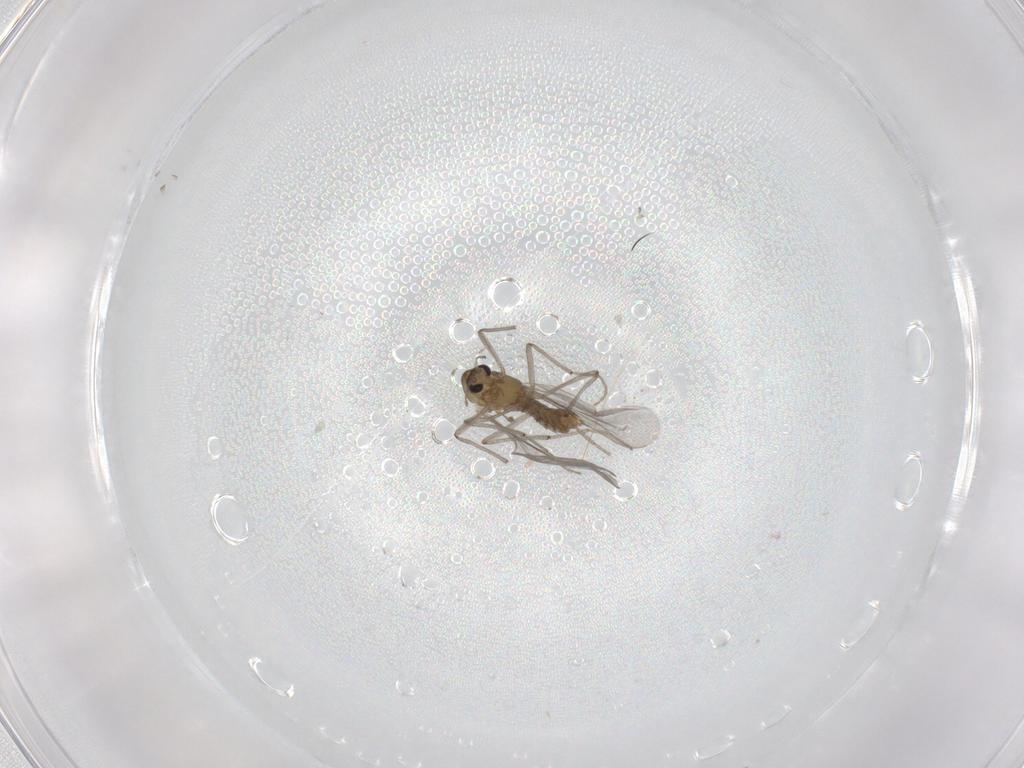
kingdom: Animalia
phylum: Arthropoda
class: Insecta
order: Diptera
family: Chironomidae
